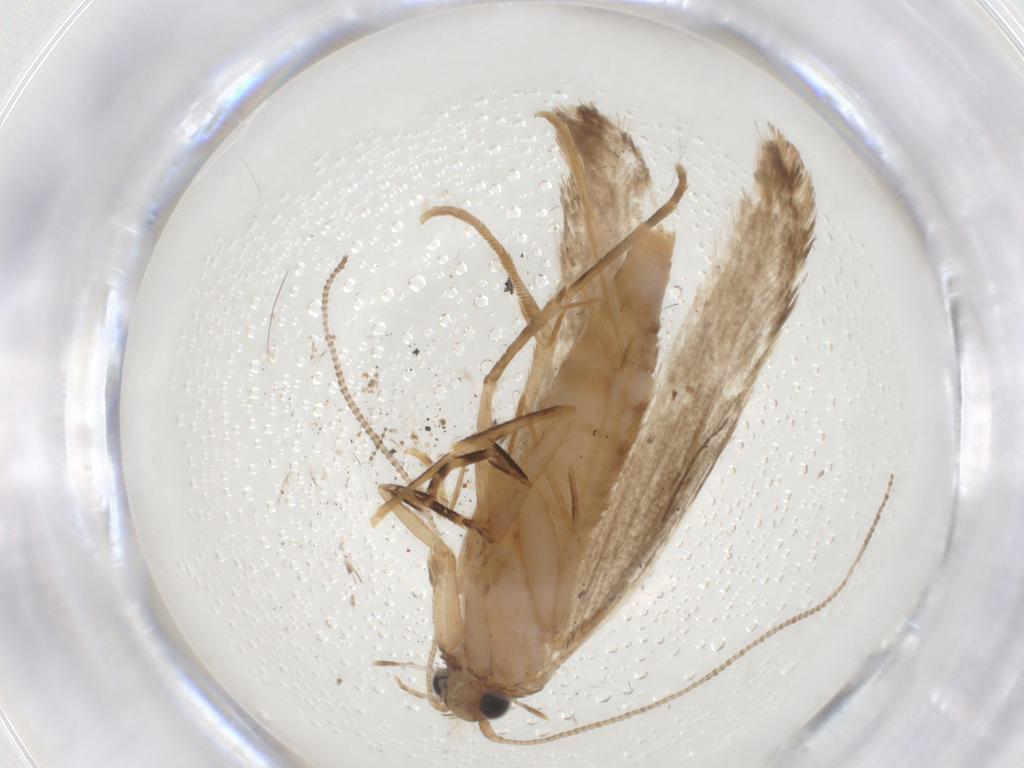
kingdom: Animalia
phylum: Arthropoda
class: Insecta
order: Lepidoptera
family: Tineidae
